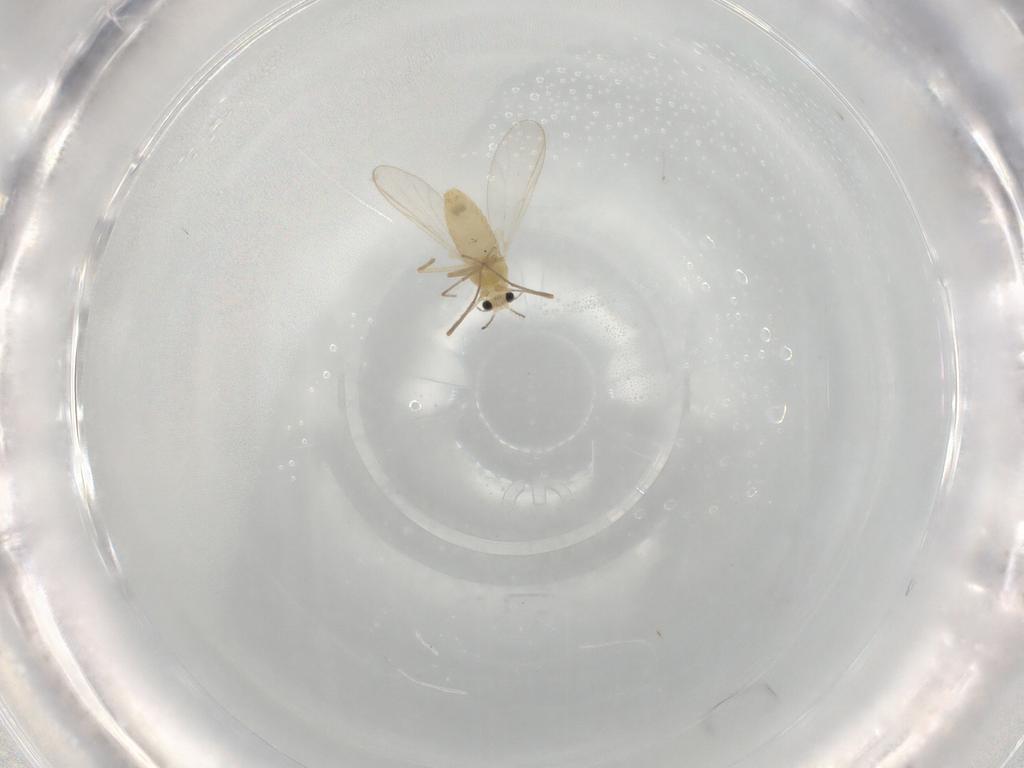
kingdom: Animalia
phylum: Arthropoda
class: Insecta
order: Diptera
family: Chironomidae
